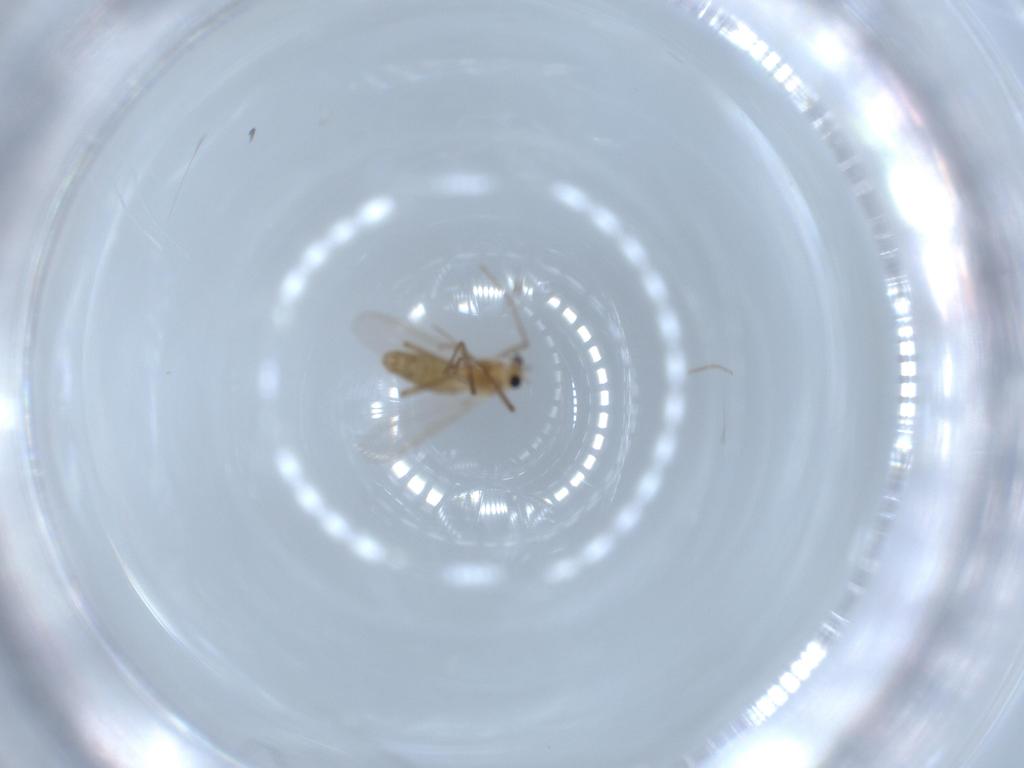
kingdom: Animalia
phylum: Arthropoda
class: Insecta
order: Diptera
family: Chironomidae
